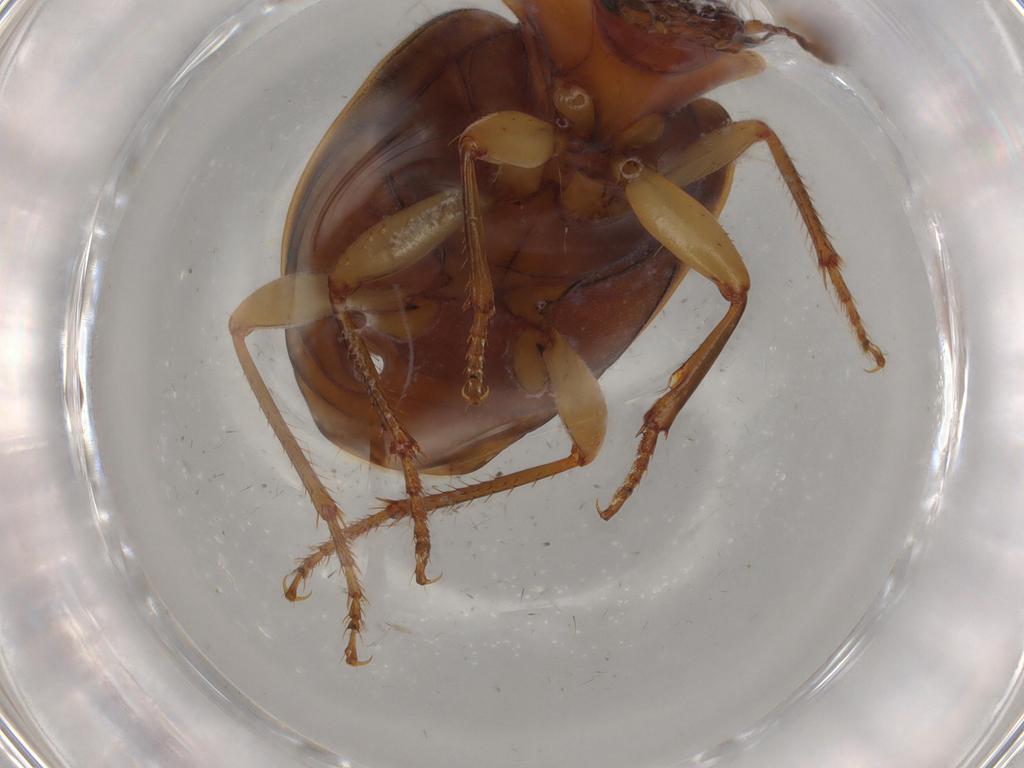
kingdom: Animalia
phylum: Arthropoda
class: Insecta
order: Coleoptera
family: Carabidae
